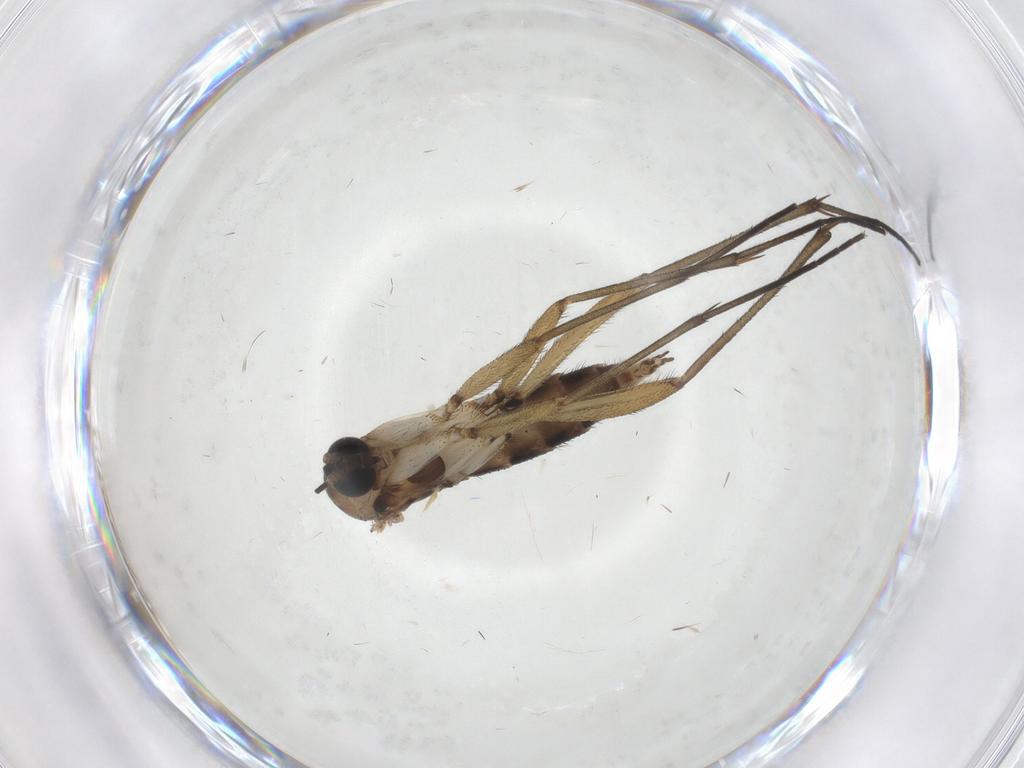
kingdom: Animalia
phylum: Arthropoda
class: Insecta
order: Diptera
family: Sciaridae
